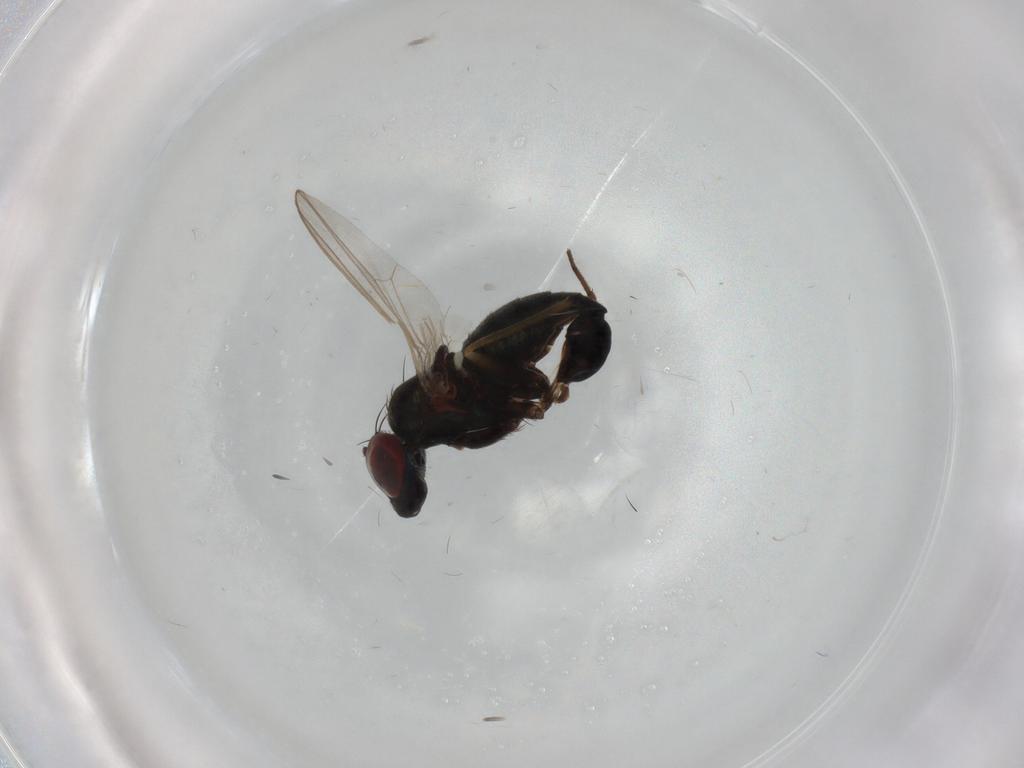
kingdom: Animalia
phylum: Arthropoda
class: Insecta
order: Diptera
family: Dolichopodidae
